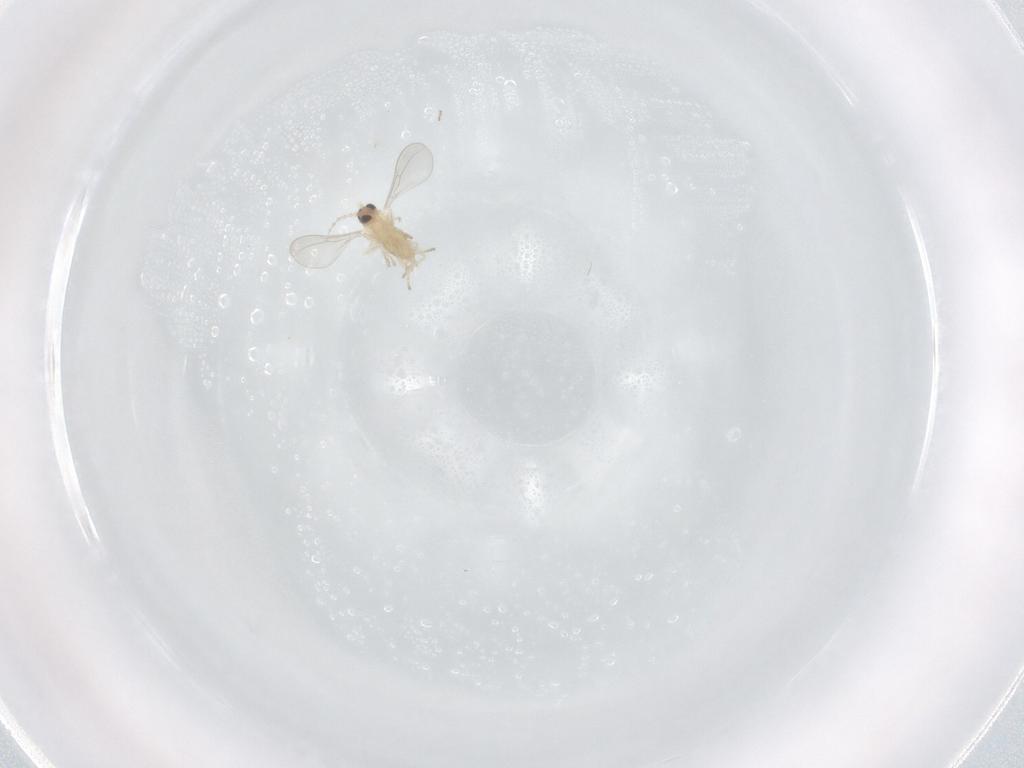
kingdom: Animalia
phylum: Arthropoda
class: Insecta
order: Diptera
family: Cecidomyiidae
